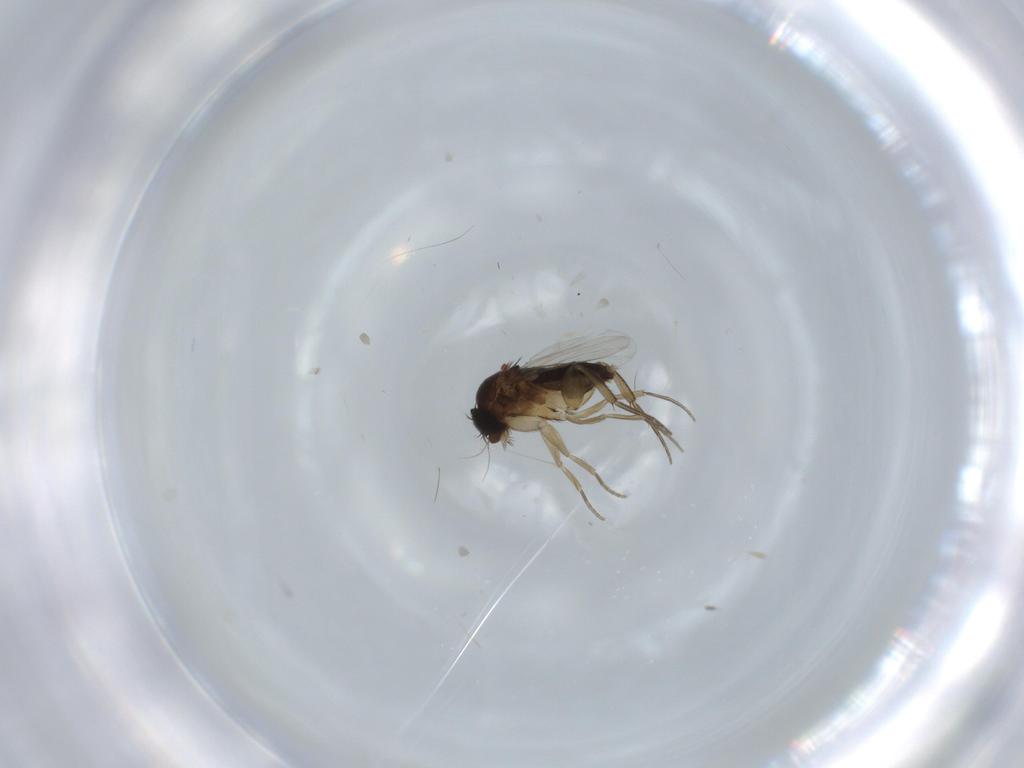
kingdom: Animalia
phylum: Arthropoda
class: Insecta
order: Diptera
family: Phoridae
